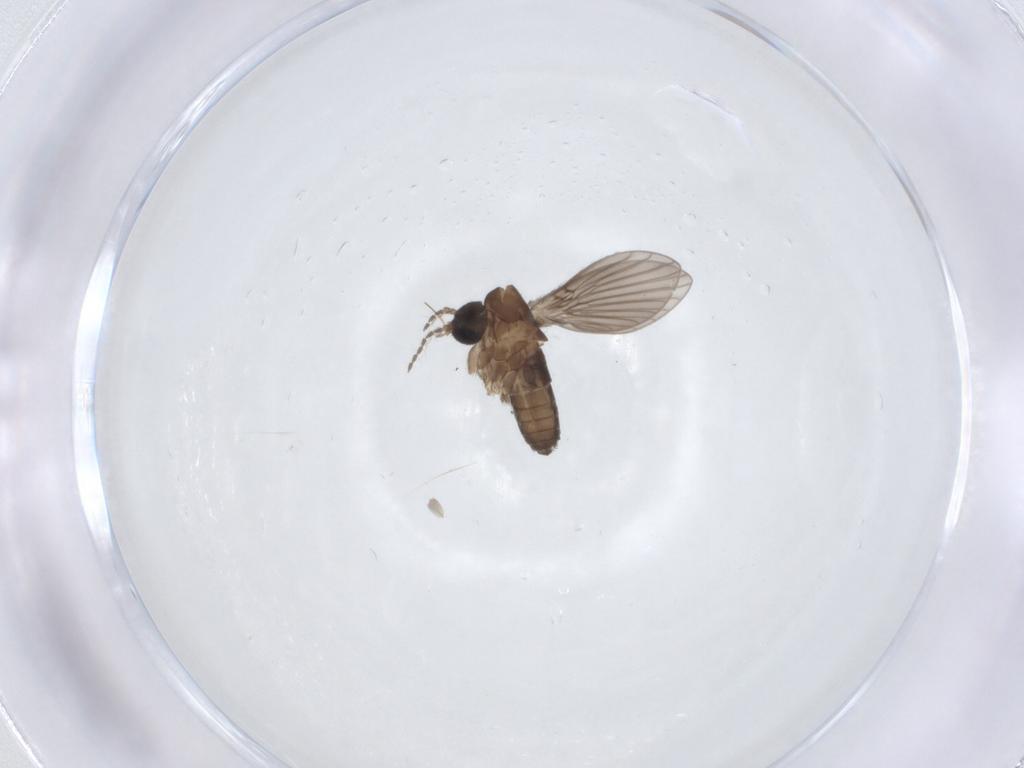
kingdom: Animalia
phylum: Arthropoda
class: Insecta
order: Diptera
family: Psychodidae
